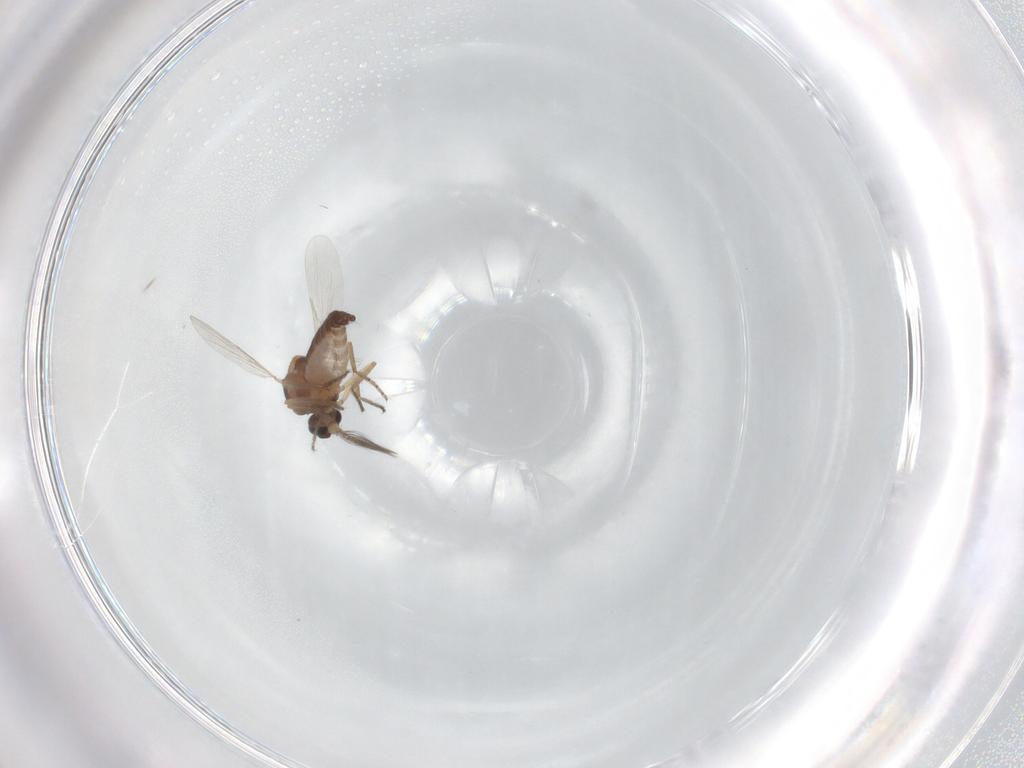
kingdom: Animalia
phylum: Arthropoda
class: Insecta
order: Diptera
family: Ceratopogonidae
